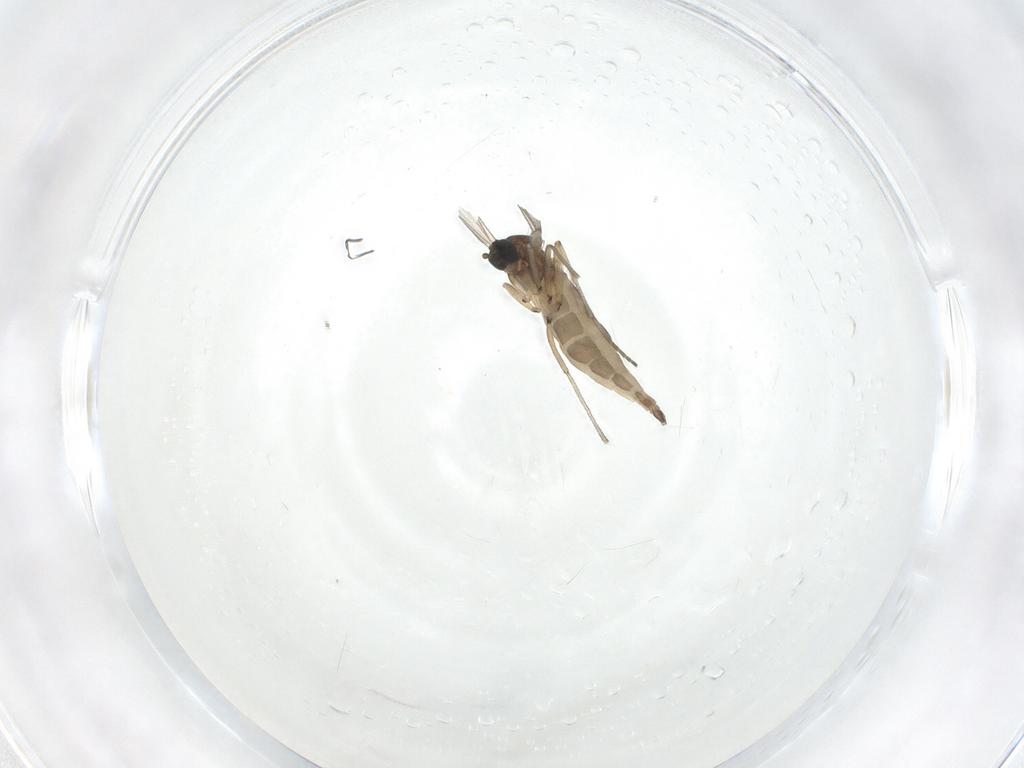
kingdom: Animalia
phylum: Arthropoda
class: Insecta
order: Diptera
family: Sciaridae
